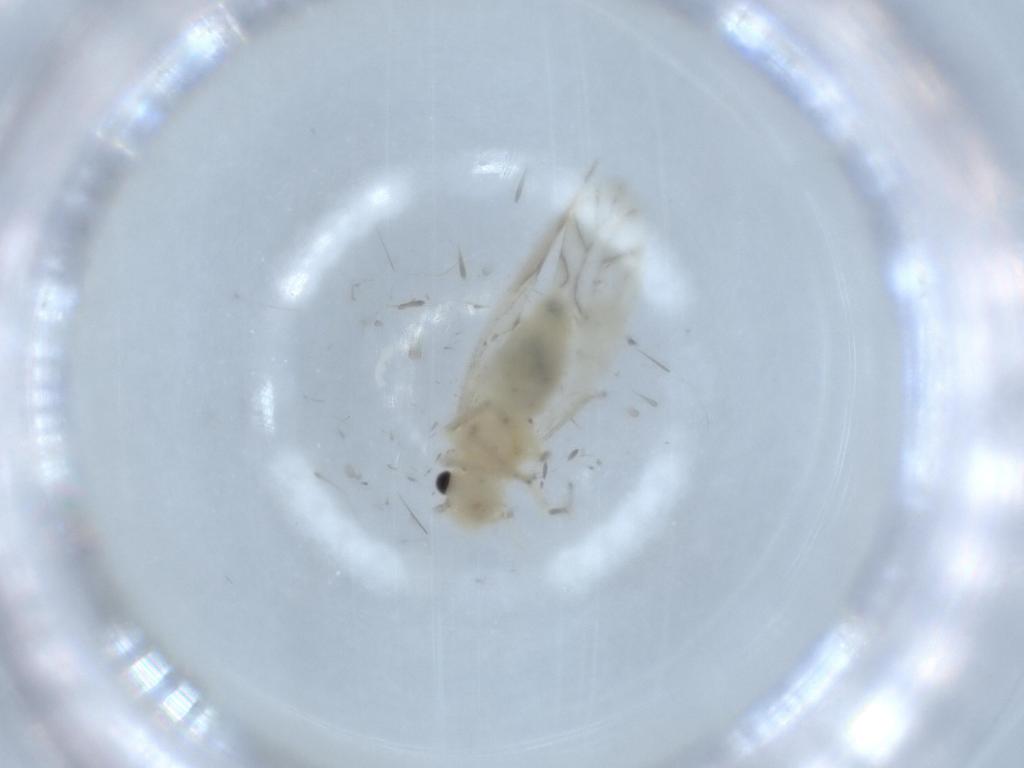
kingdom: Animalia
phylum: Arthropoda
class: Insecta
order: Psocodea
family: Caeciliusidae
